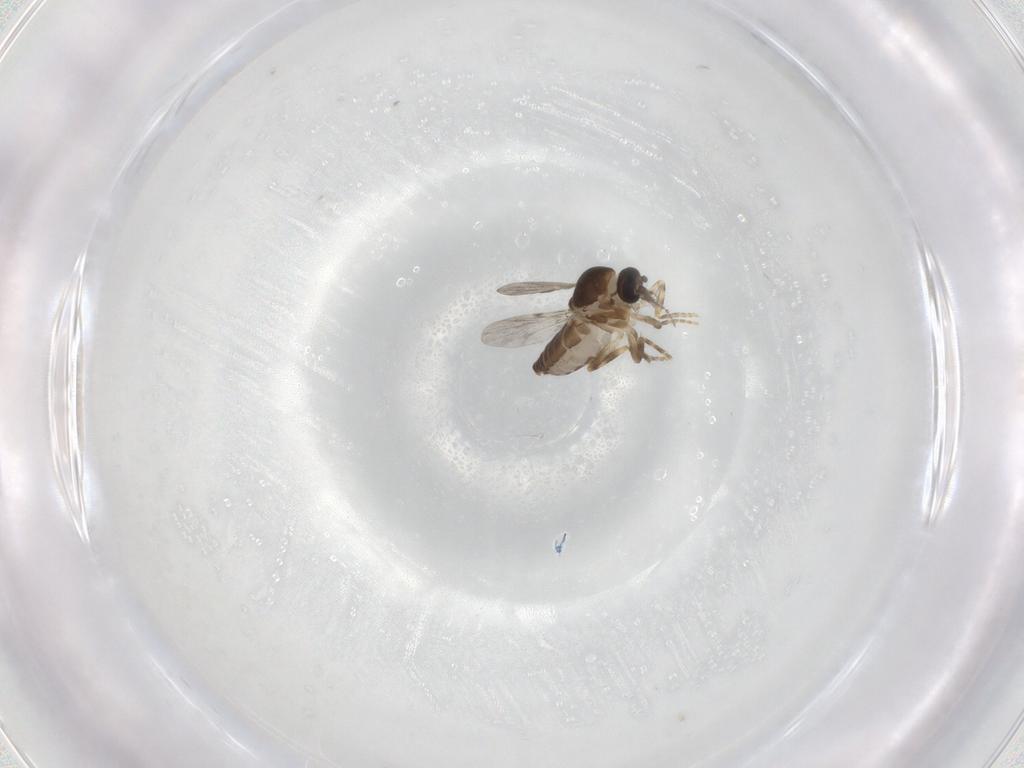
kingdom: Animalia
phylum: Arthropoda
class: Insecta
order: Diptera
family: Ceratopogonidae
